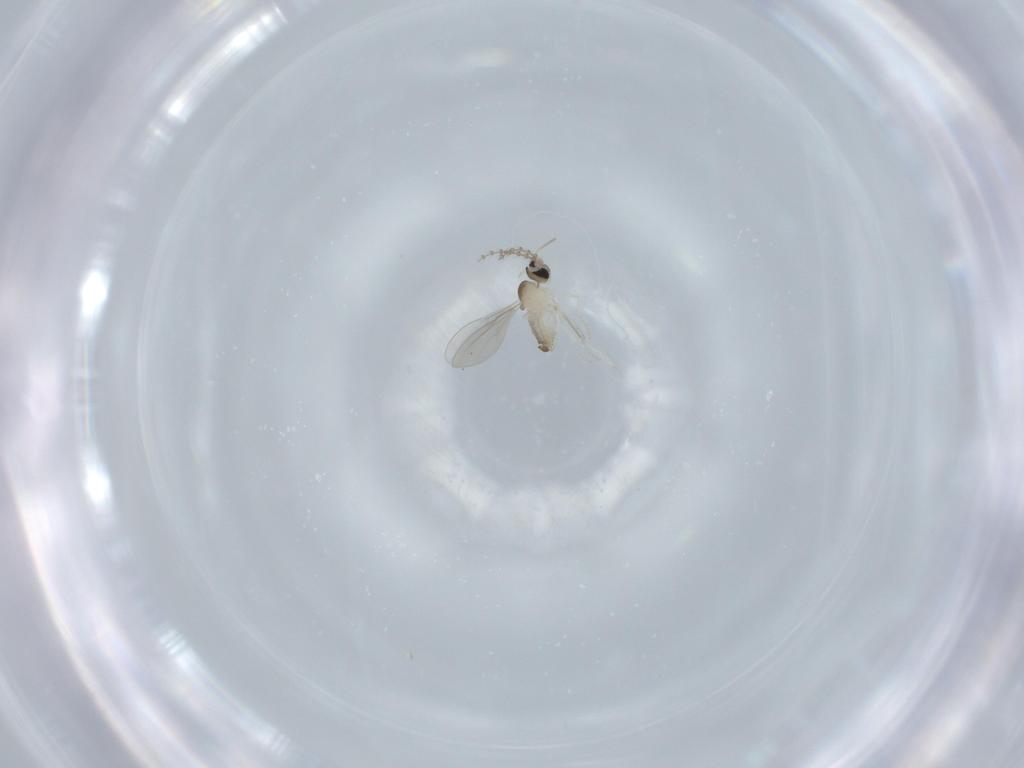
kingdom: Animalia
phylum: Arthropoda
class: Insecta
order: Diptera
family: Cecidomyiidae
